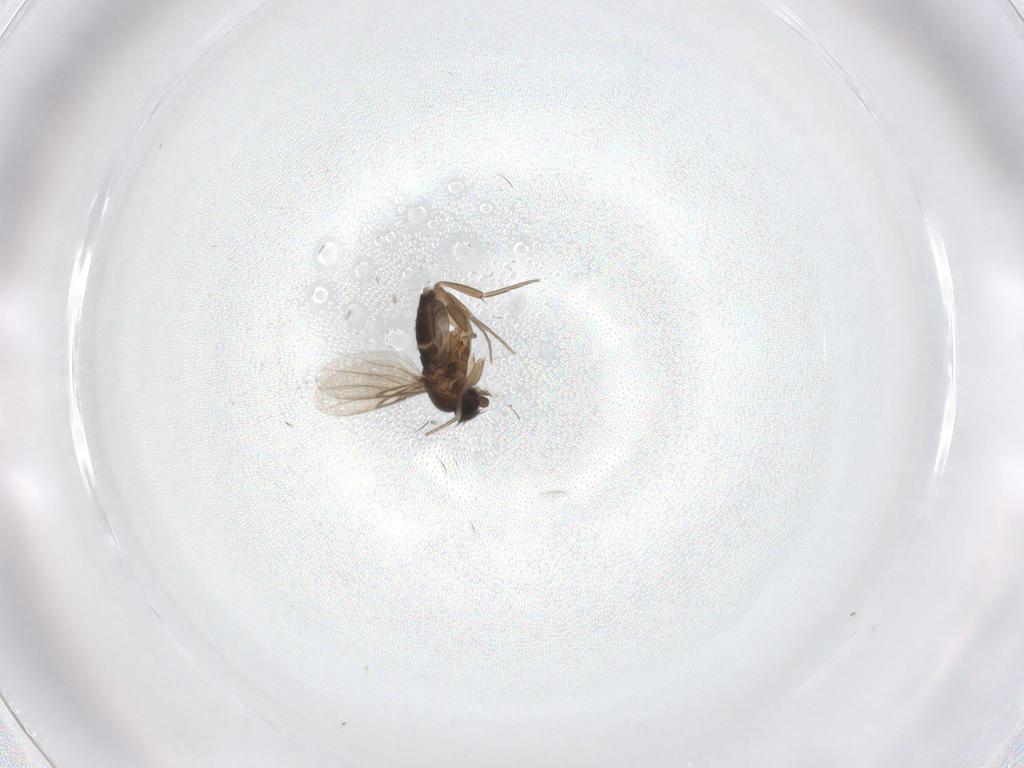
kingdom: Animalia
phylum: Arthropoda
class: Insecta
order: Diptera
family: Phoridae
